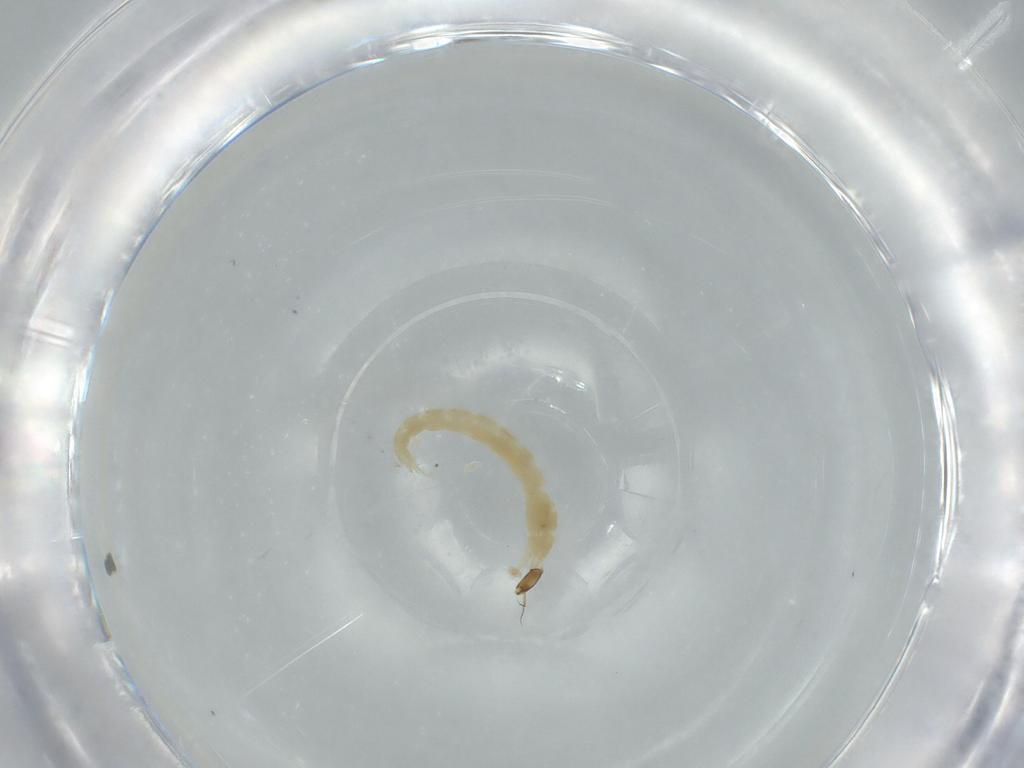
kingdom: Animalia
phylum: Arthropoda
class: Insecta
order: Diptera
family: Chironomidae
